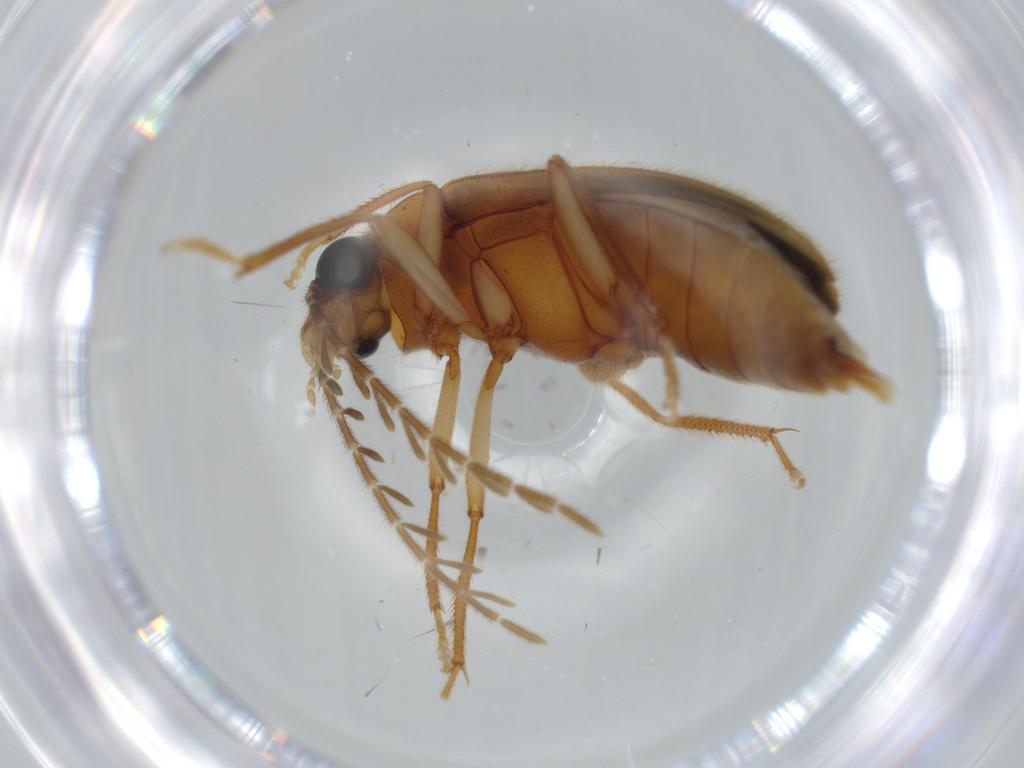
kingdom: Animalia
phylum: Arthropoda
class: Insecta
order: Coleoptera
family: Ptilodactylidae
